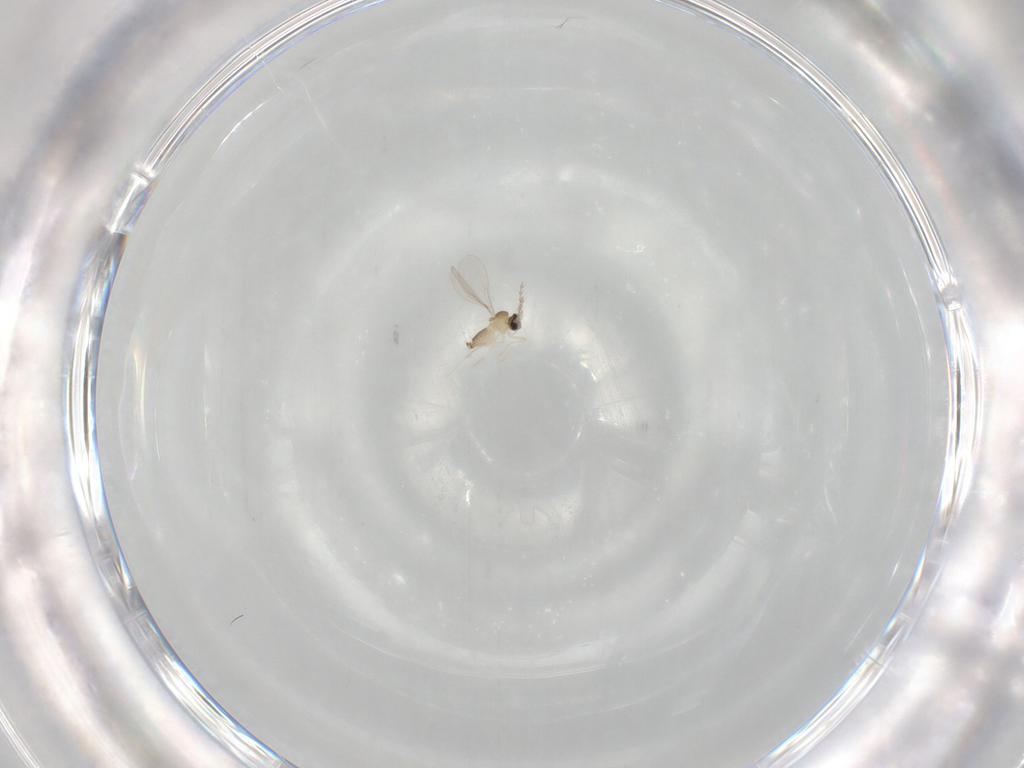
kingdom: Animalia
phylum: Arthropoda
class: Insecta
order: Diptera
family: Cecidomyiidae
